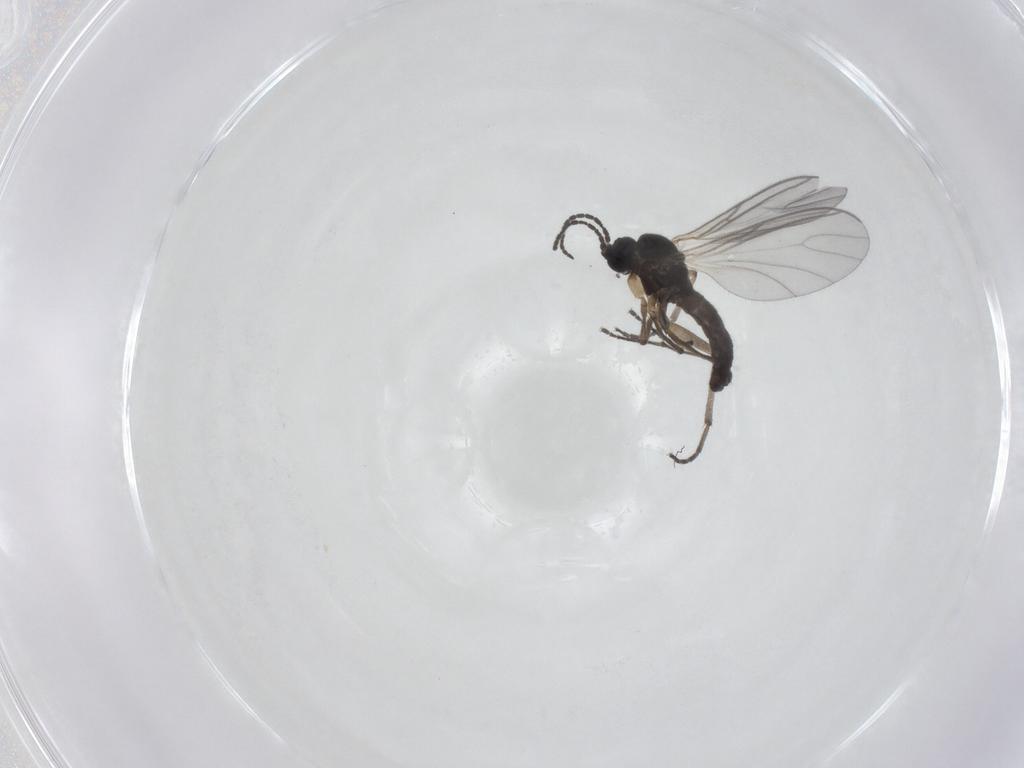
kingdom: Animalia
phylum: Arthropoda
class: Insecta
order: Diptera
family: Sciaridae
